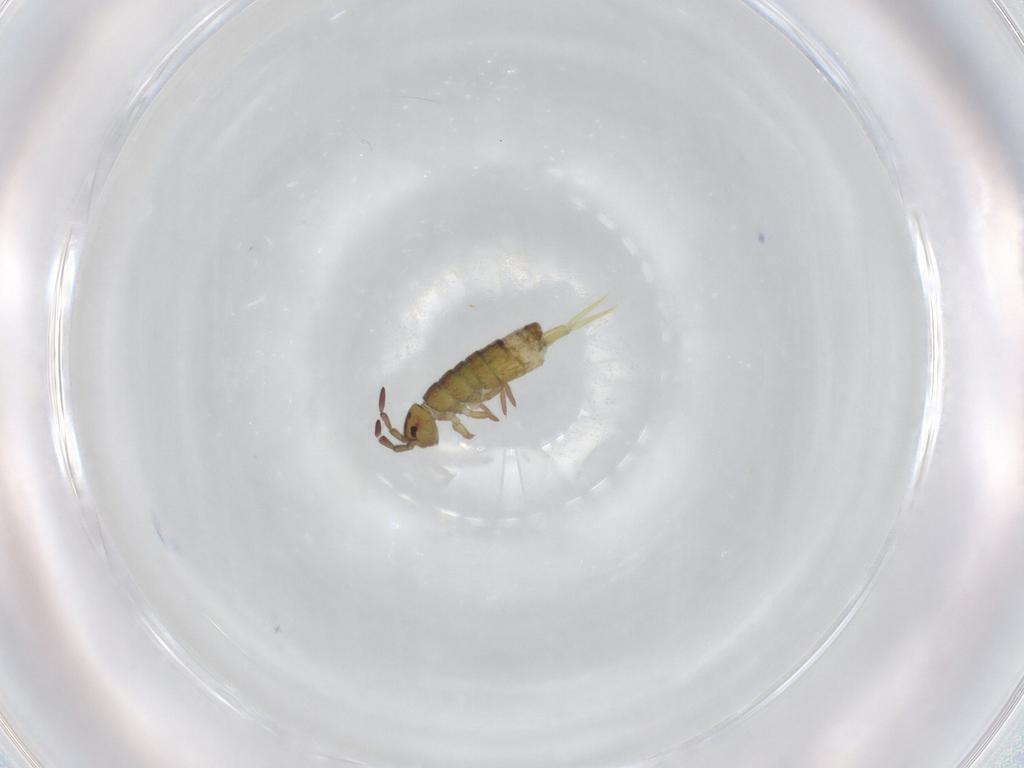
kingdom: Animalia
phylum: Arthropoda
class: Collembola
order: Entomobryomorpha
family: Isotomidae
